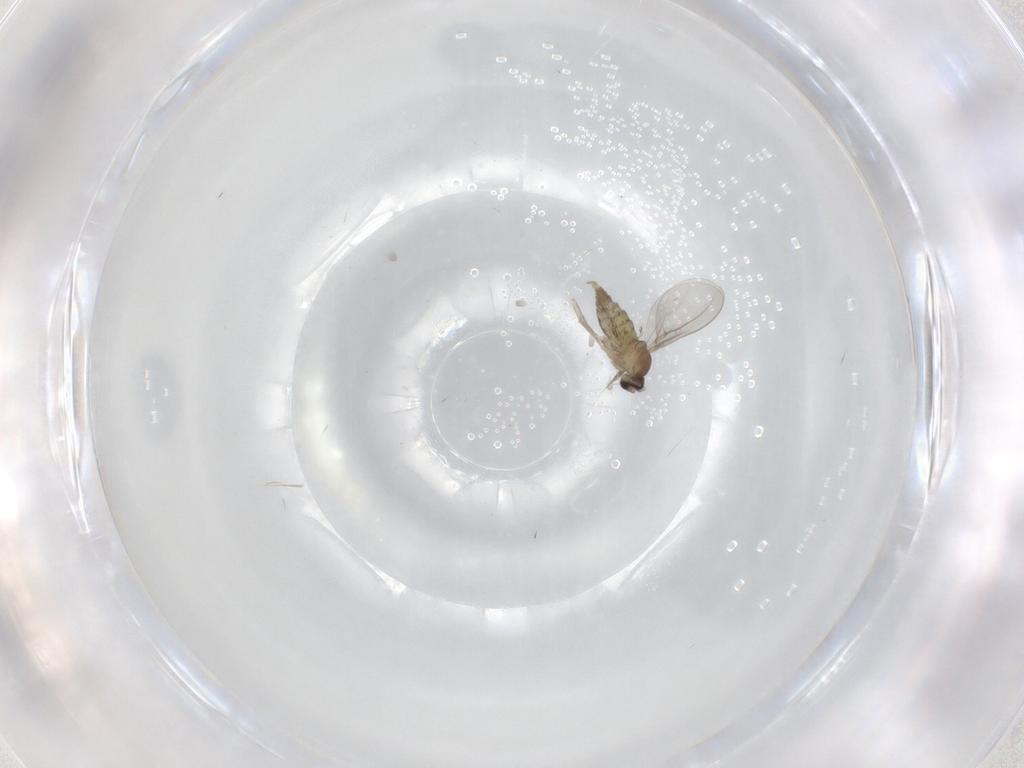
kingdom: Animalia
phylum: Arthropoda
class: Insecta
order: Diptera
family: Cecidomyiidae
